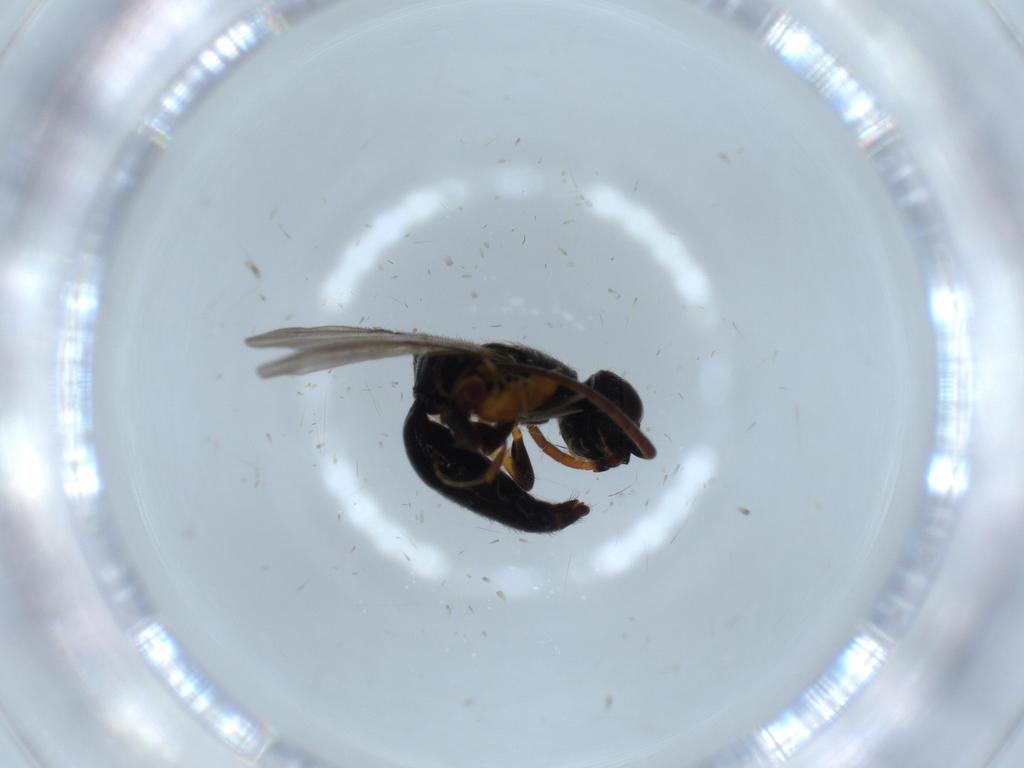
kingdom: Animalia
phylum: Arthropoda
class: Insecta
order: Hymenoptera
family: Bethylidae
